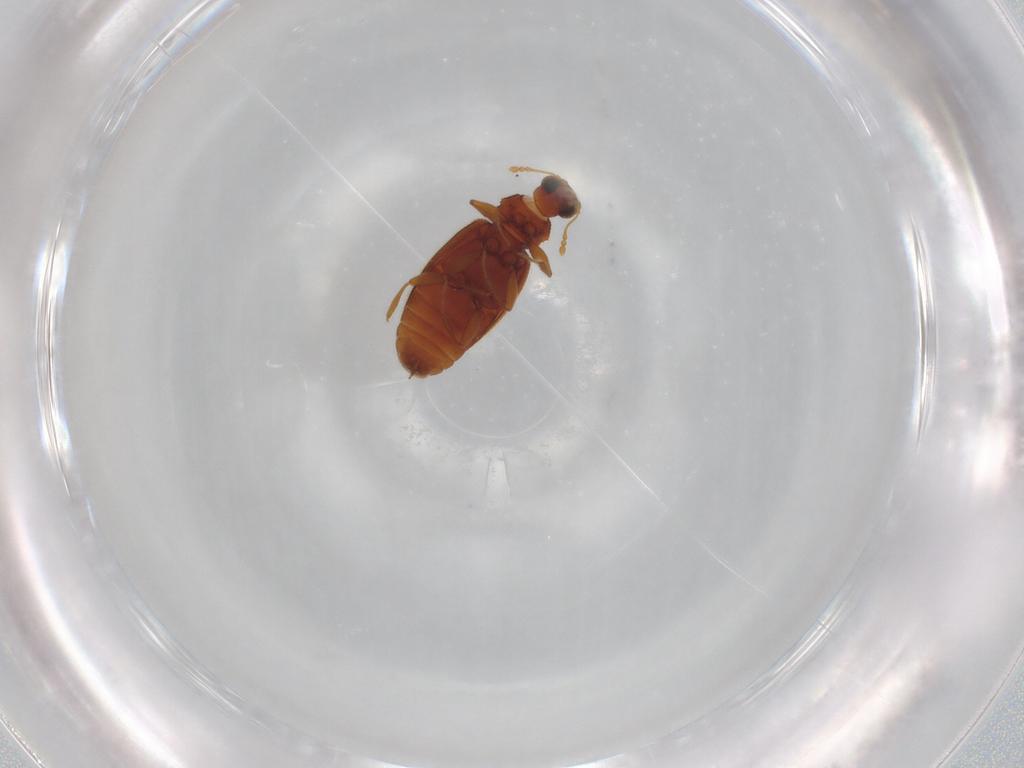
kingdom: Animalia
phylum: Arthropoda
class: Insecta
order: Coleoptera
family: Latridiidae
